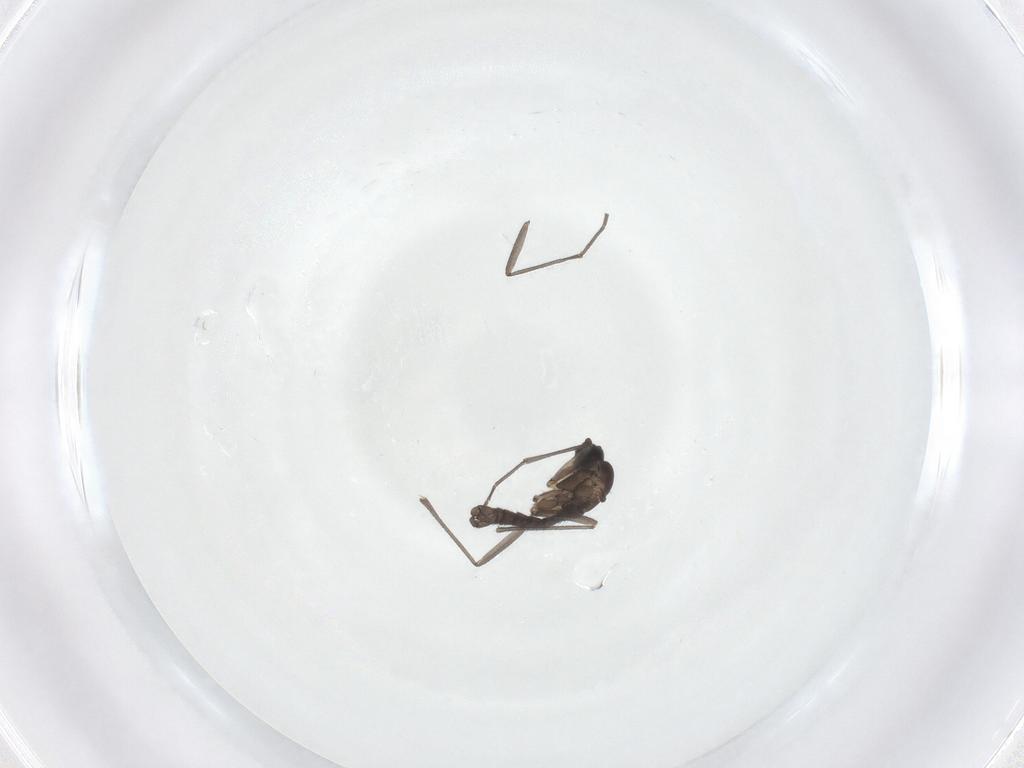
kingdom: Animalia
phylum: Arthropoda
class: Insecta
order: Diptera
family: Sciaridae
